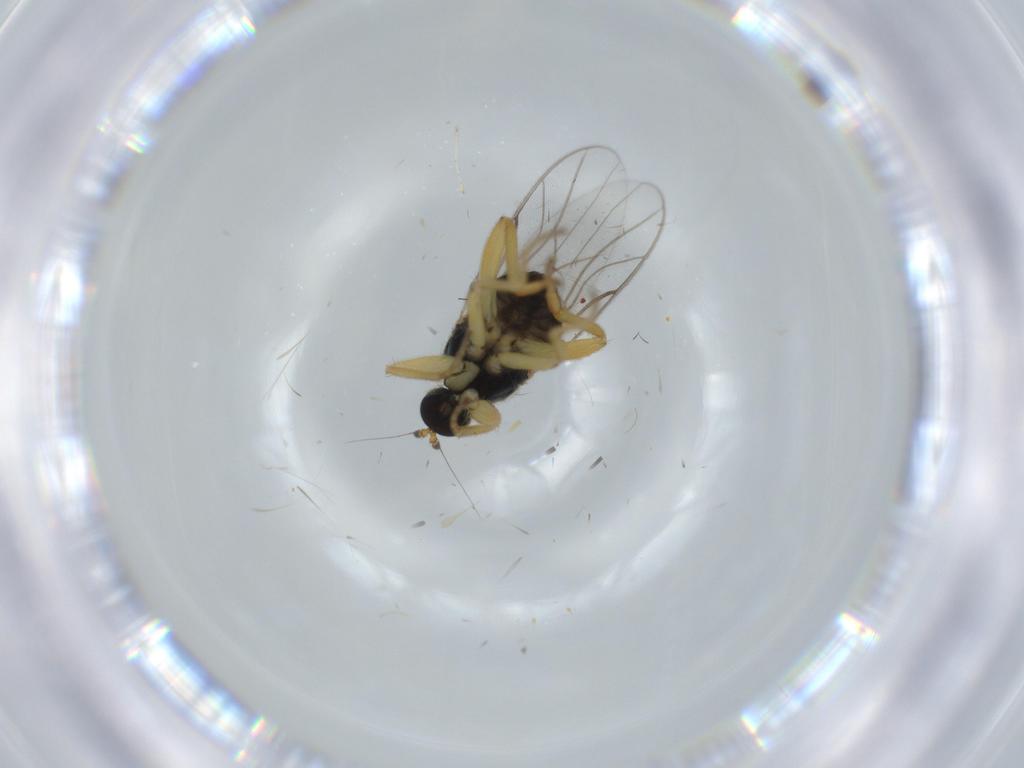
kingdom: Animalia
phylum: Arthropoda
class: Insecta
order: Diptera
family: Hybotidae
